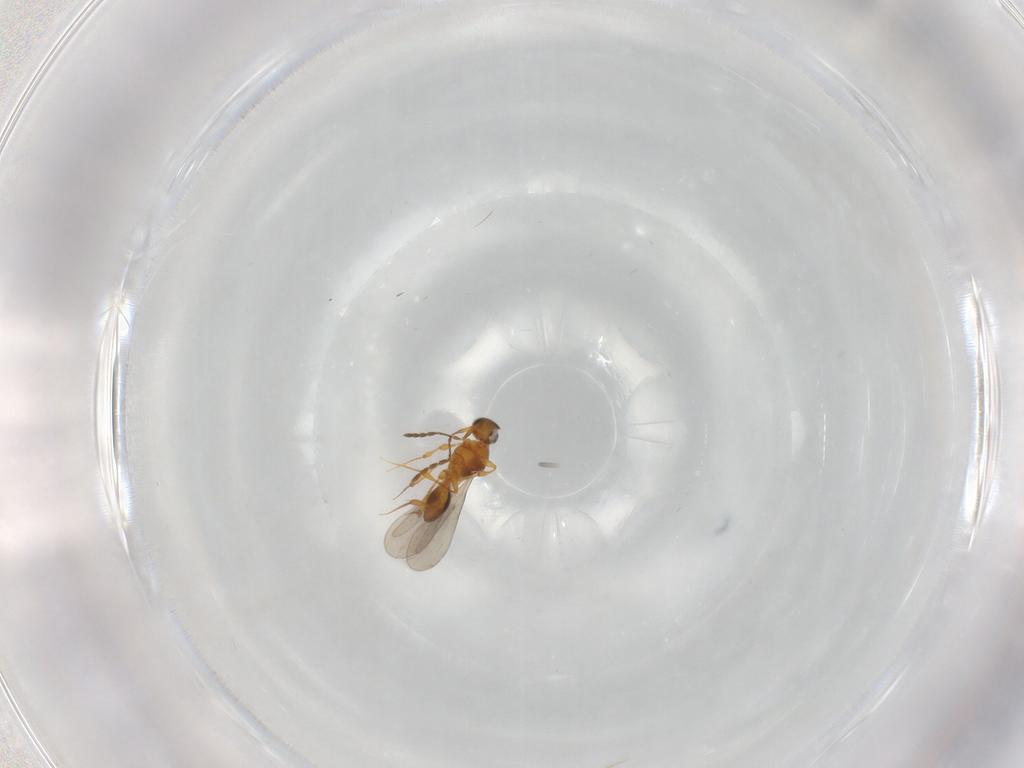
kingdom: Animalia
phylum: Arthropoda
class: Insecta
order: Hymenoptera
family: Platygastridae
